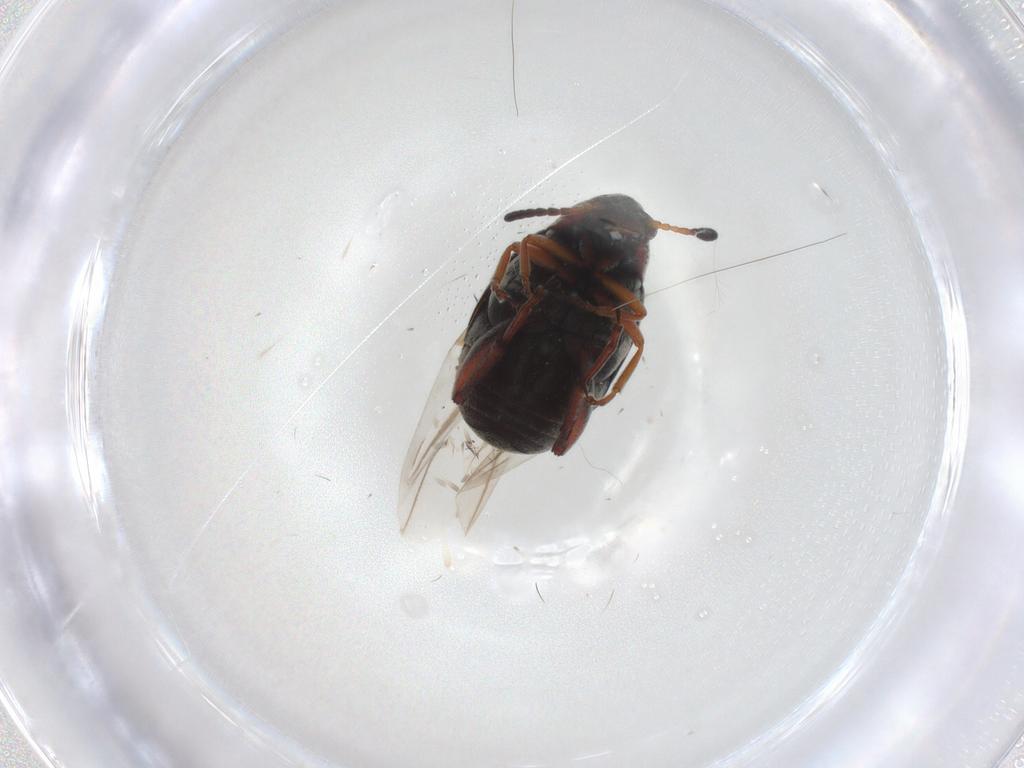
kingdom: Animalia
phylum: Arthropoda
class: Insecta
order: Coleoptera
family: Chrysomelidae
